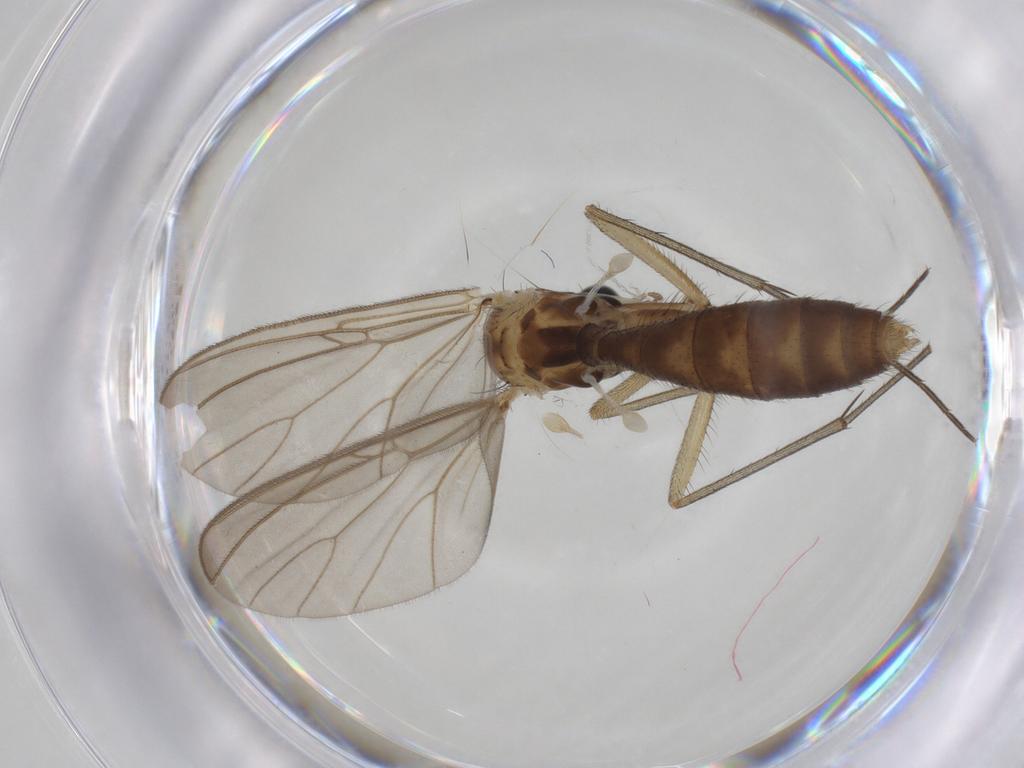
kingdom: Animalia
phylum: Arthropoda
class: Insecta
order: Diptera
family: Mycetophilidae
